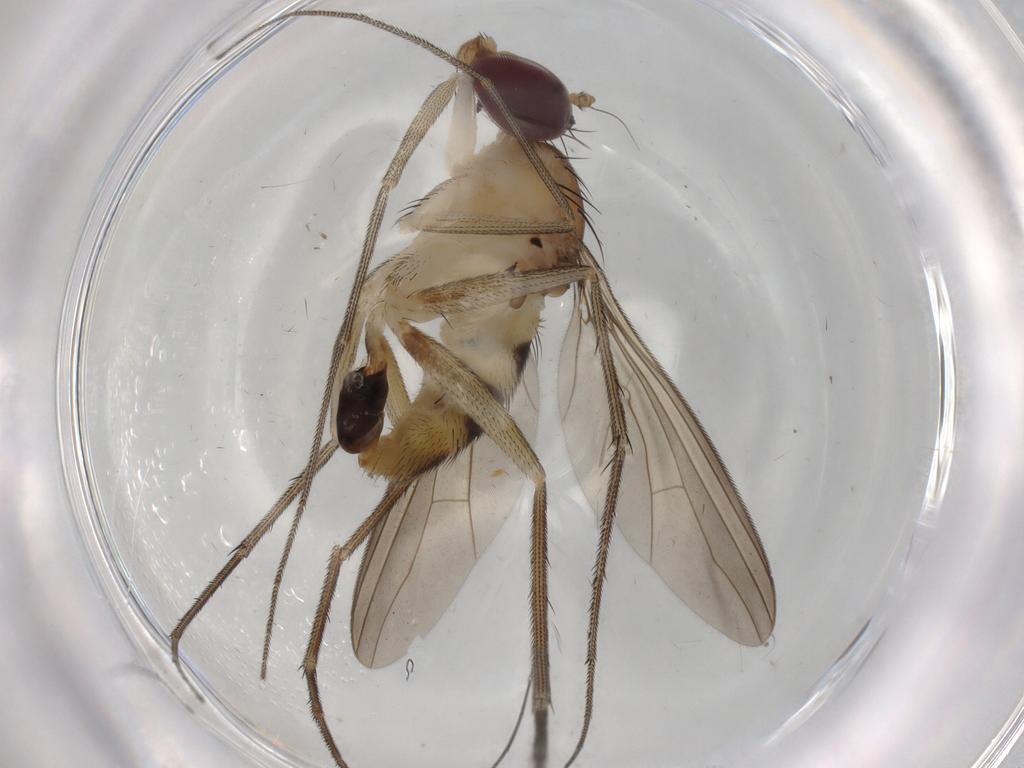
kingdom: Animalia
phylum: Arthropoda
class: Insecta
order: Diptera
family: Dolichopodidae
